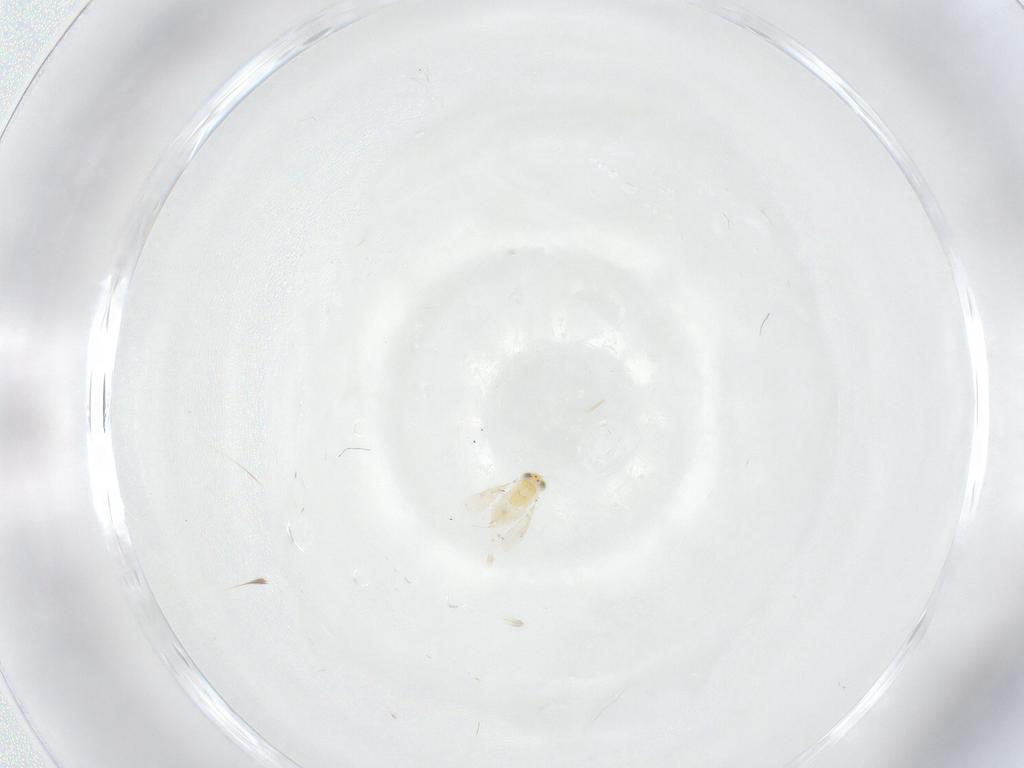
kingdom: Animalia
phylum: Arthropoda
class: Insecta
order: Hymenoptera
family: Aphelinidae
